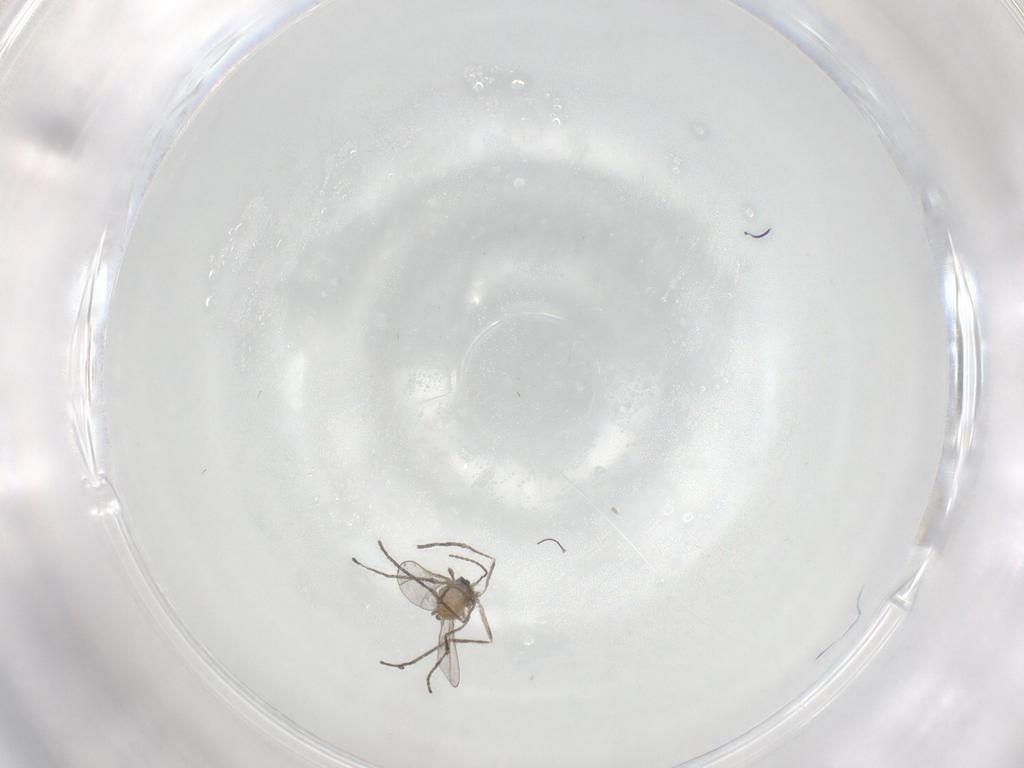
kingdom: Animalia
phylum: Arthropoda
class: Insecta
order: Diptera
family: Cecidomyiidae
